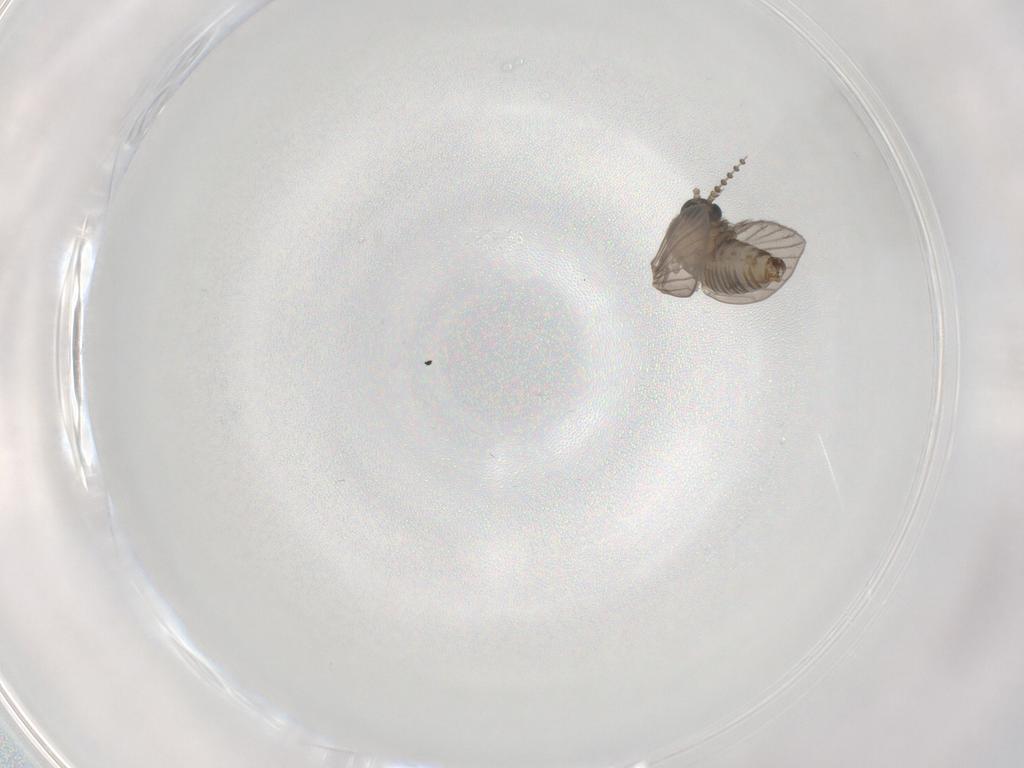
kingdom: Animalia
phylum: Arthropoda
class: Insecta
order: Diptera
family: Psychodidae
